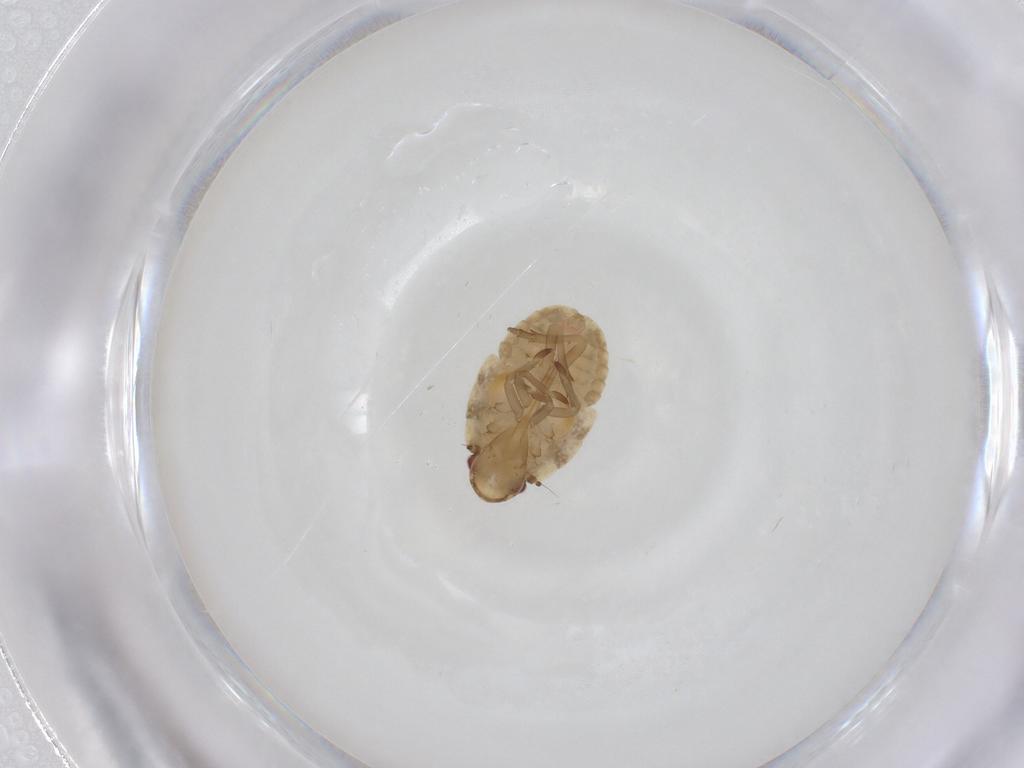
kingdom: Animalia
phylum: Arthropoda
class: Insecta
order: Hemiptera
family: Flatidae
